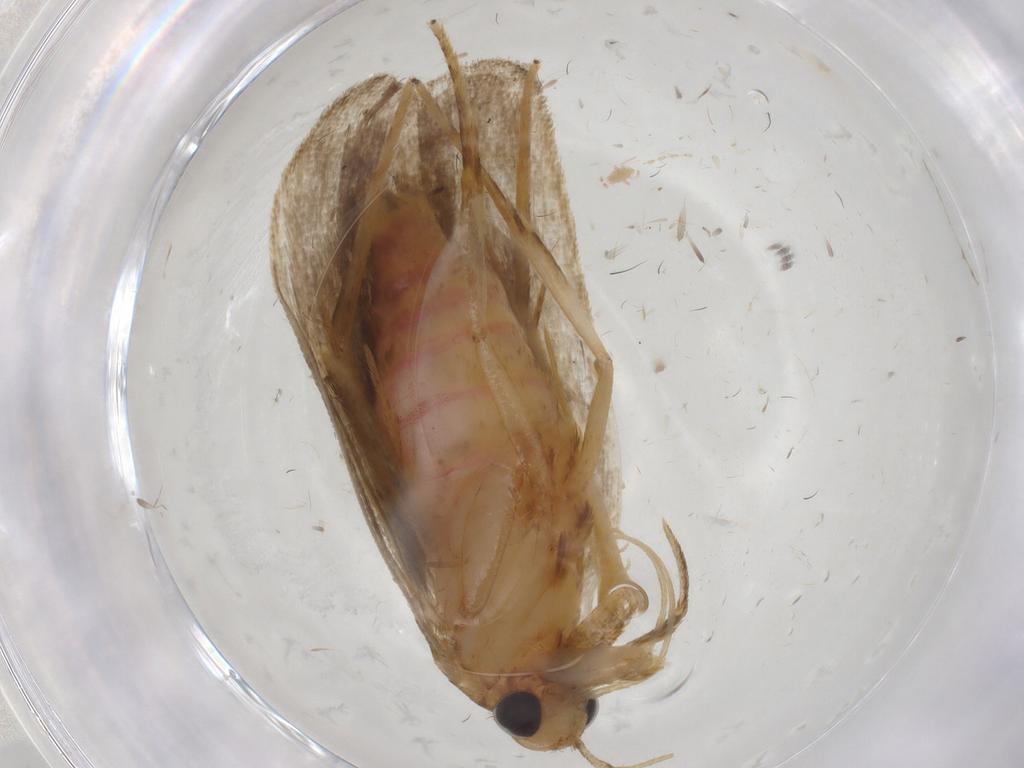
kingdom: Animalia
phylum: Arthropoda
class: Insecta
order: Lepidoptera
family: Autostichidae
